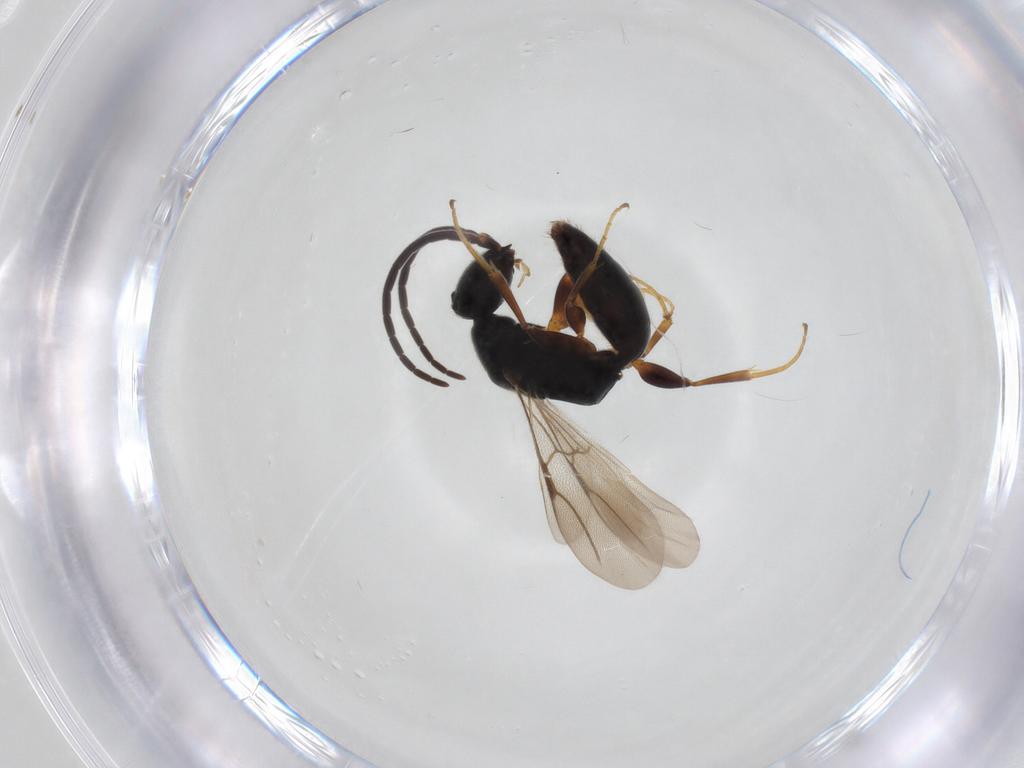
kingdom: Animalia
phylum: Arthropoda
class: Insecta
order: Hymenoptera
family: Bethylidae
